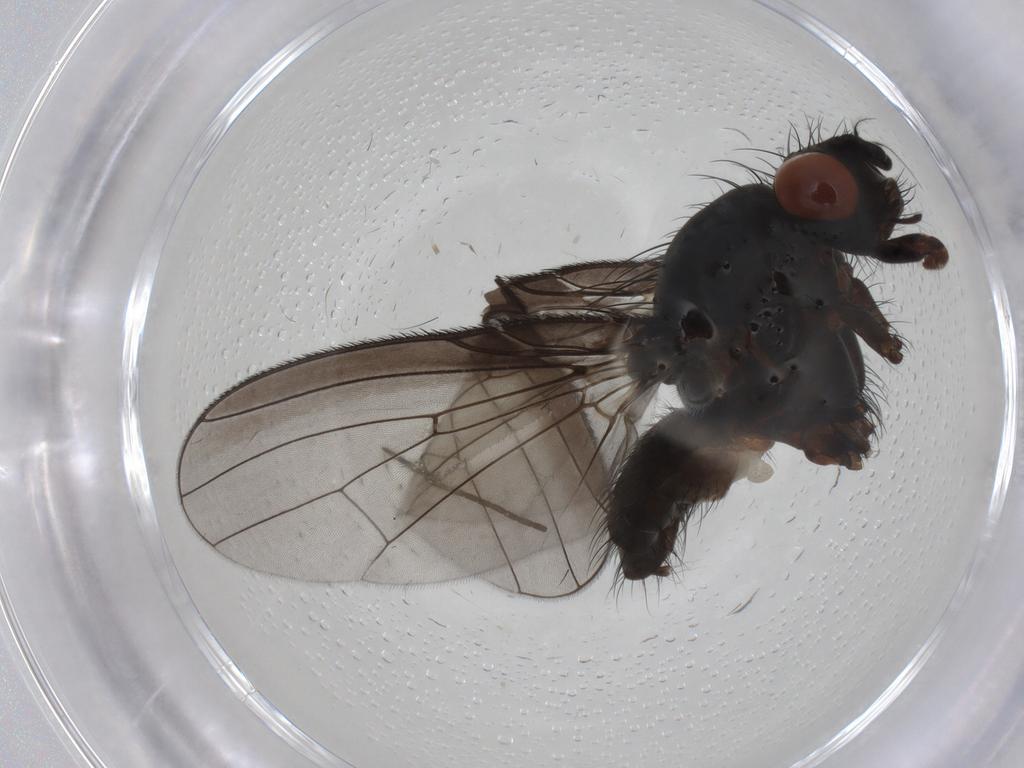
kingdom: Animalia
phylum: Arthropoda
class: Insecta
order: Diptera
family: Anthomyiidae
